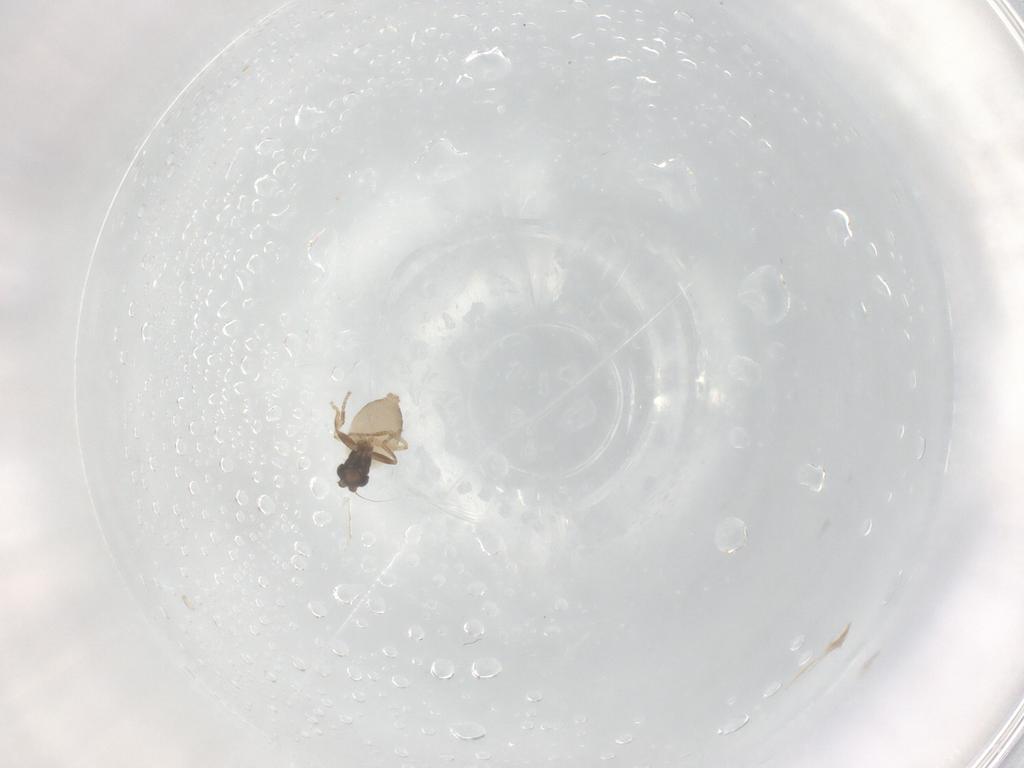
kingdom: Animalia
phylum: Arthropoda
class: Insecta
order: Diptera
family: Phoridae
